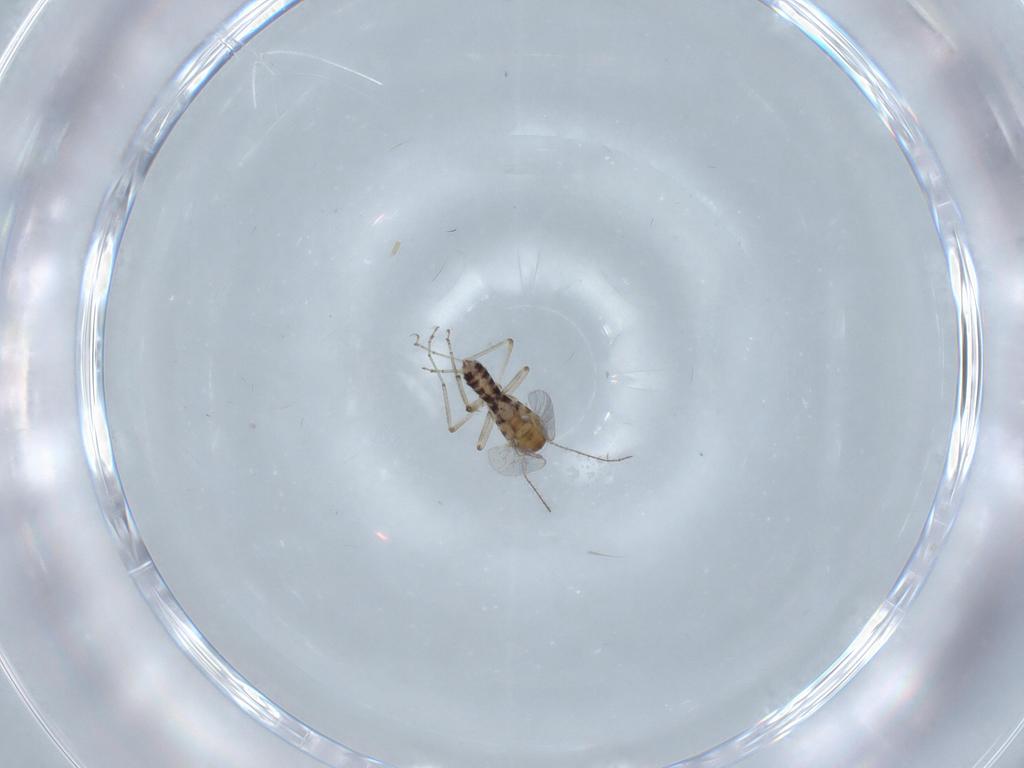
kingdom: Animalia
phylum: Arthropoda
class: Insecta
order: Diptera
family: Ceratopogonidae
